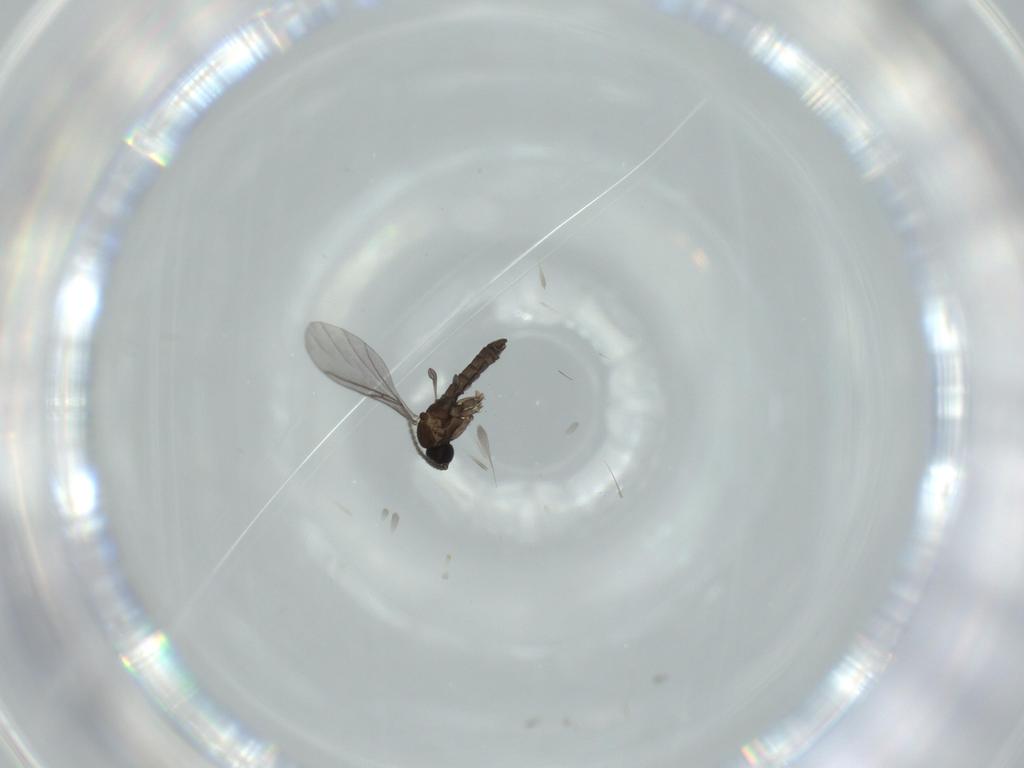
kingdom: Animalia
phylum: Arthropoda
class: Insecta
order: Diptera
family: Sciaridae
